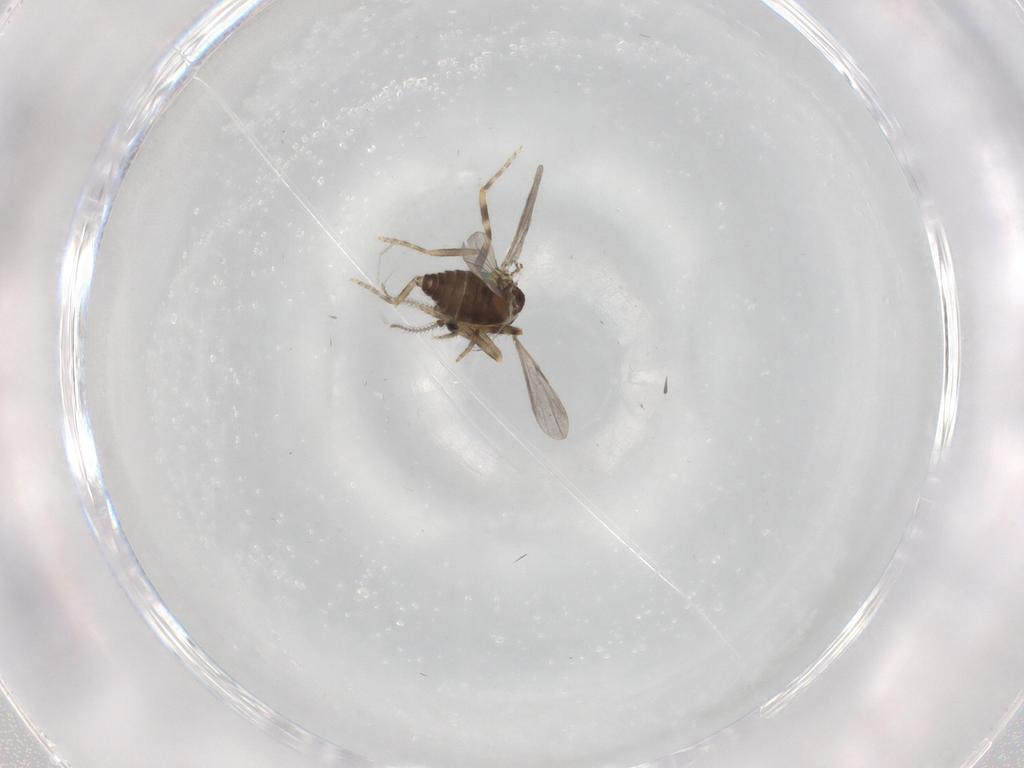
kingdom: Animalia
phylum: Arthropoda
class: Insecta
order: Diptera
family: Ceratopogonidae
